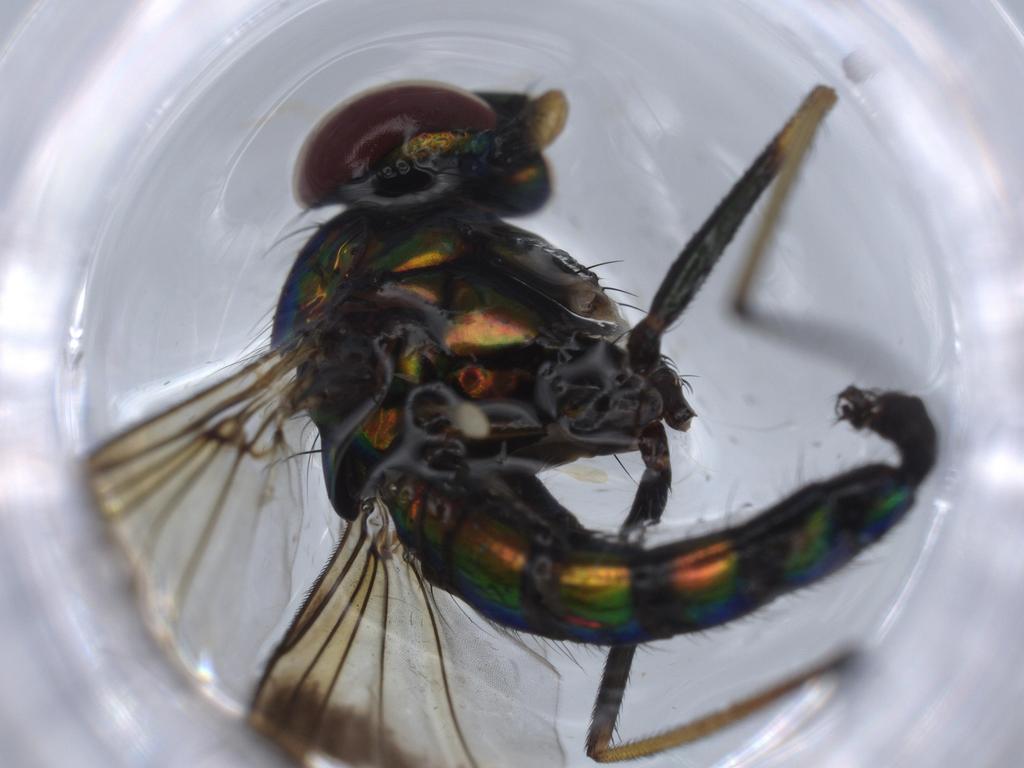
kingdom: Animalia
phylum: Arthropoda
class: Insecta
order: Diptera
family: Dolichopodidae
